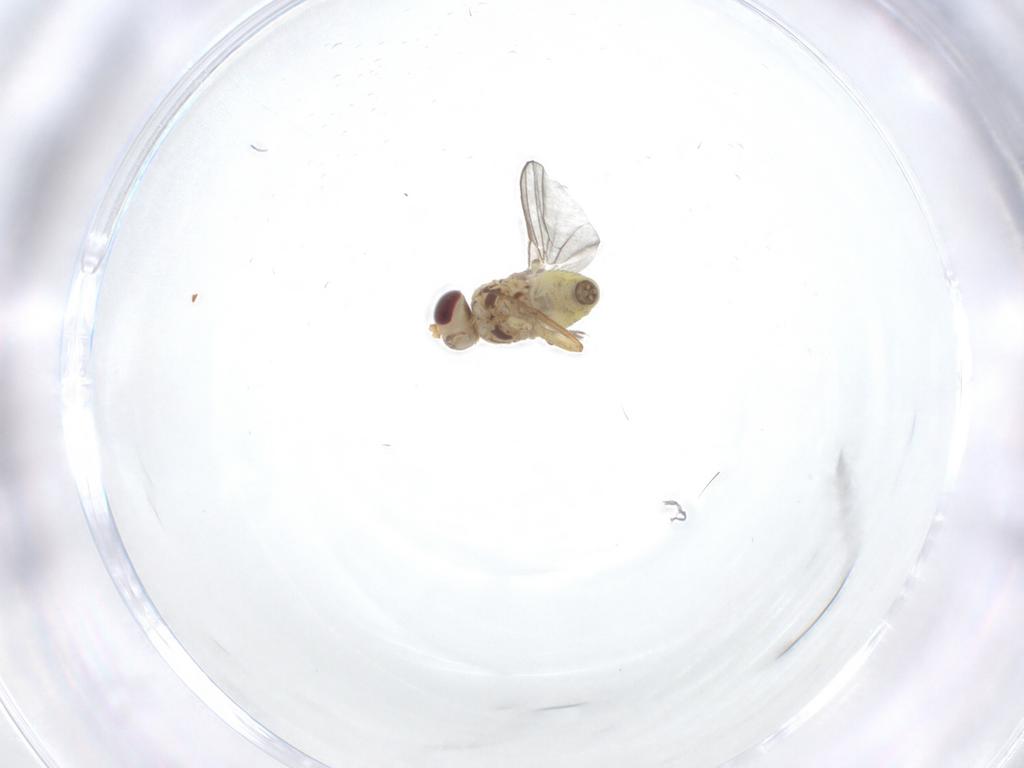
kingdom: Animalia
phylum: Arthropoda
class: Insecta
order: Diptera
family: Agromyzidae
